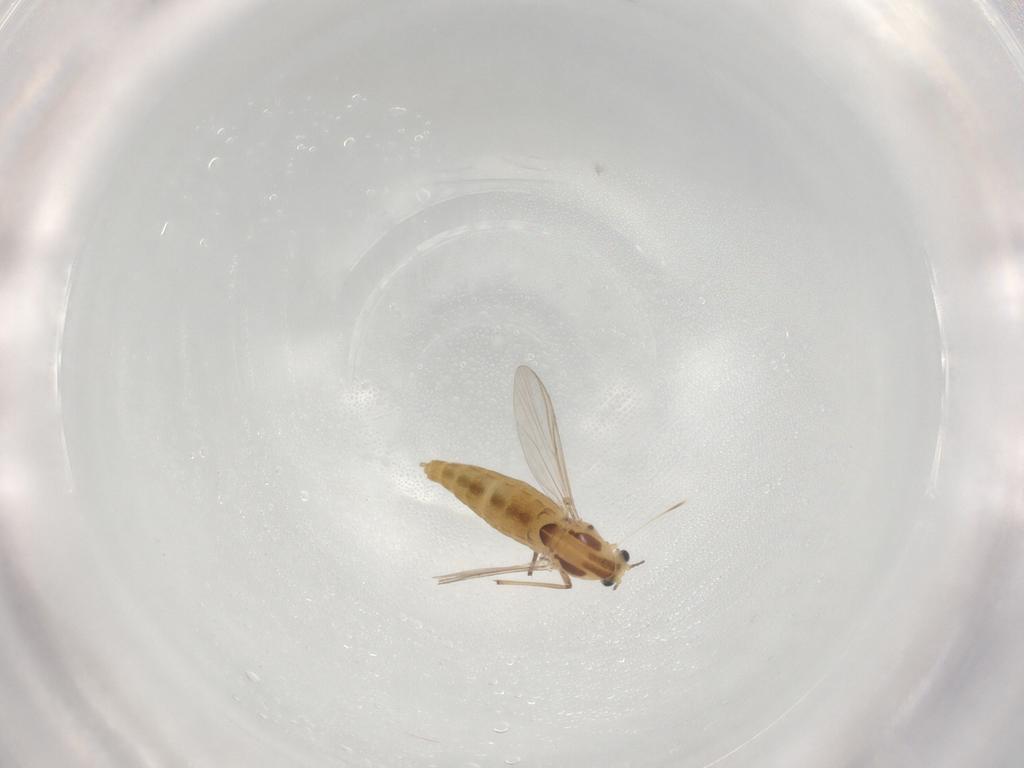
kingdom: Animalia
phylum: Arthropoda
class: Insecta
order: Diptera
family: Chironomidae
